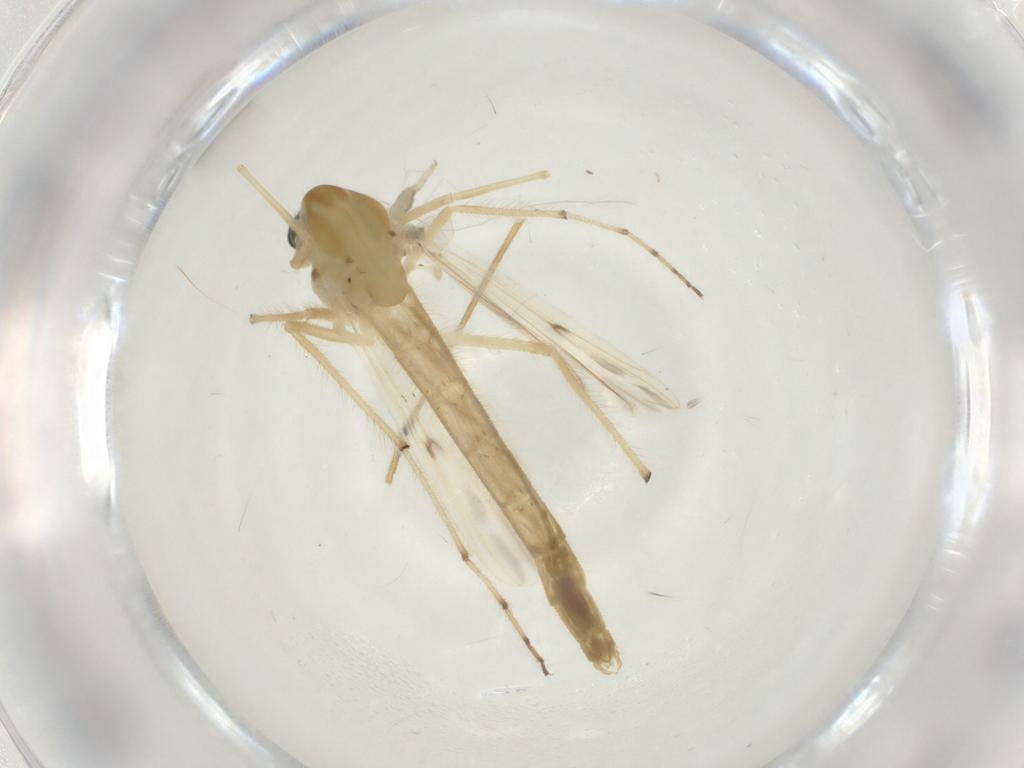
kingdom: Animalia
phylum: Arthropoda
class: Insecta
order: Diptera
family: Chironomidae
